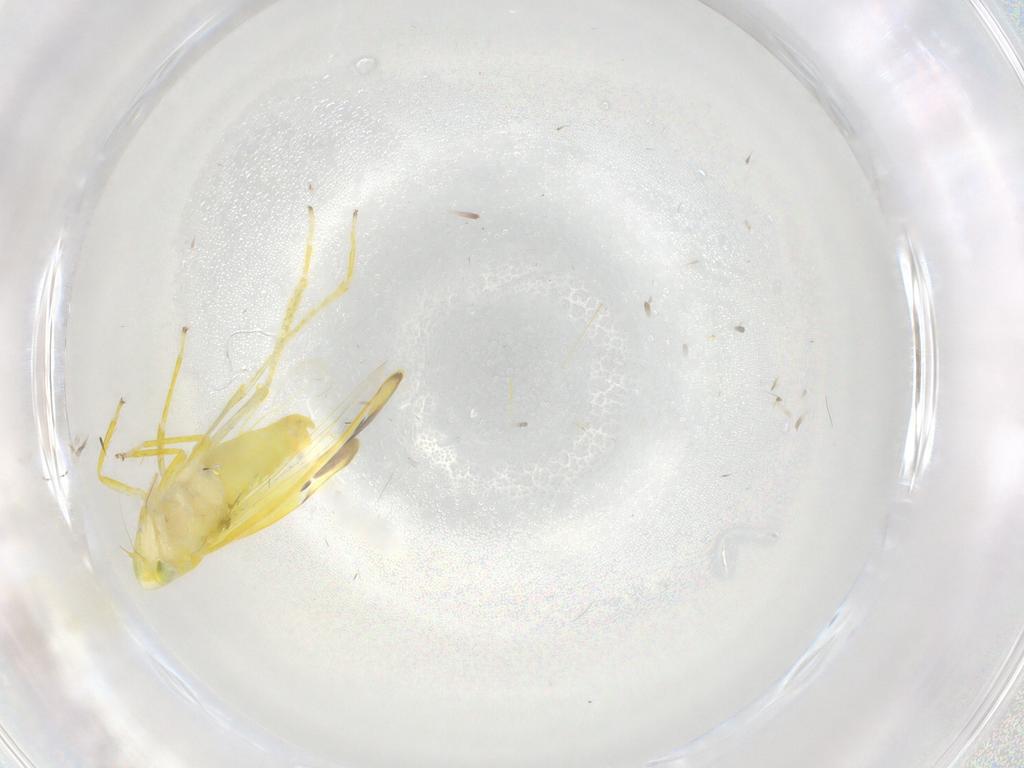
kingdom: Animalia
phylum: Arthropoda
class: Insecta
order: Hemiptera
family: Cicadellidae
